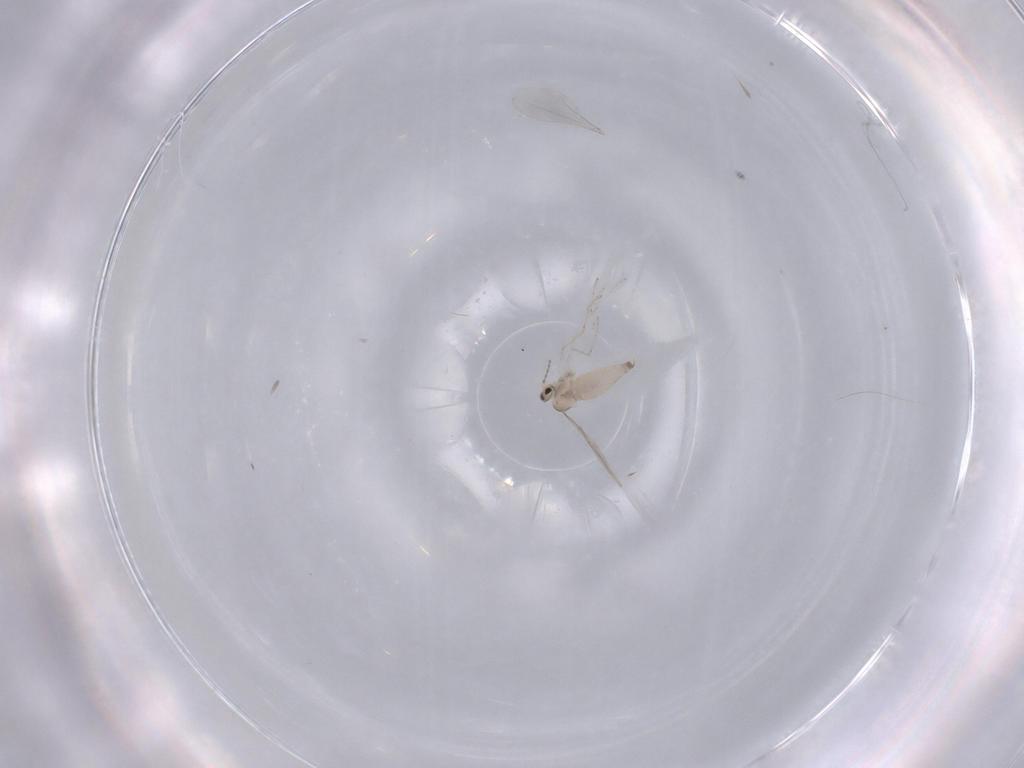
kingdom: Animalia
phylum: Arthropoda
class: Insecta
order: Diptera
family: Cecidomyiidae
